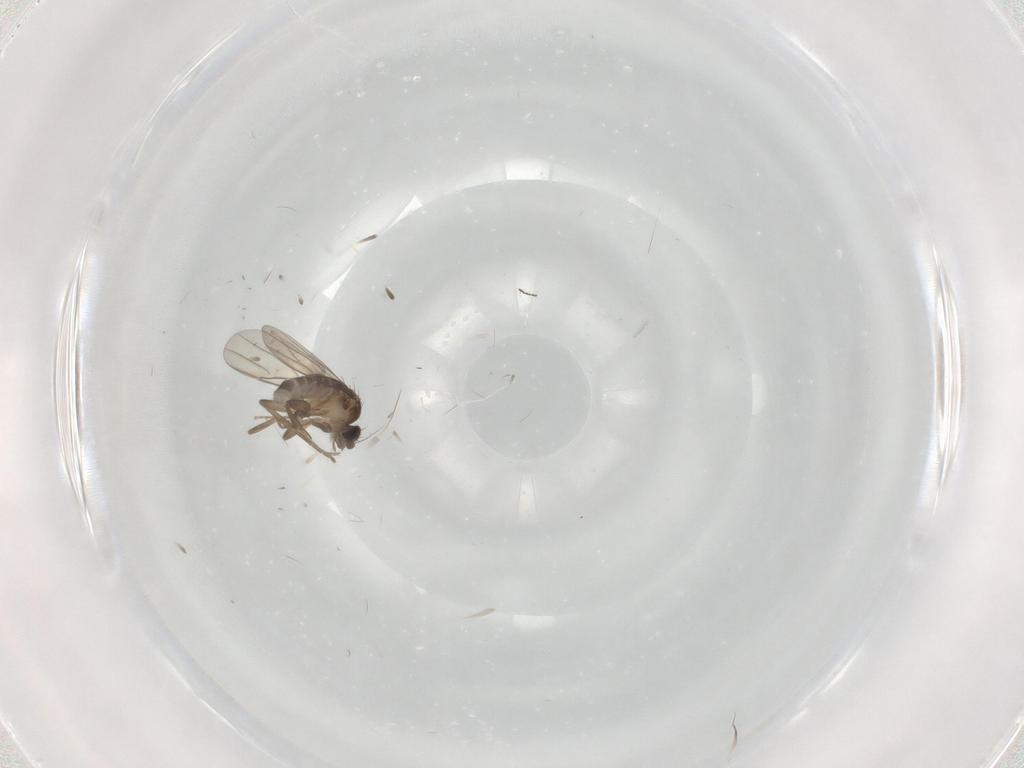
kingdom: Animalia
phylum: Arthropoda
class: Insecta
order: Diptera
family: Phoridae
